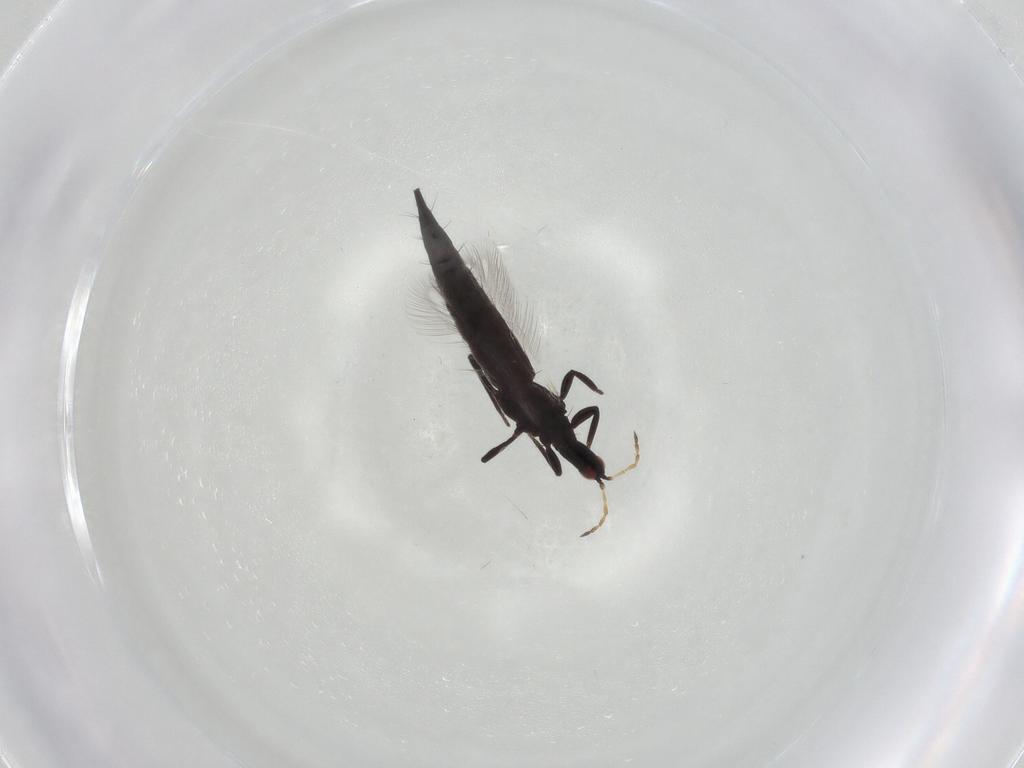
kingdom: Animalia
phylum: Arthropoda
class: Insecta
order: Thysanoptera
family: Phlaeothripidae
